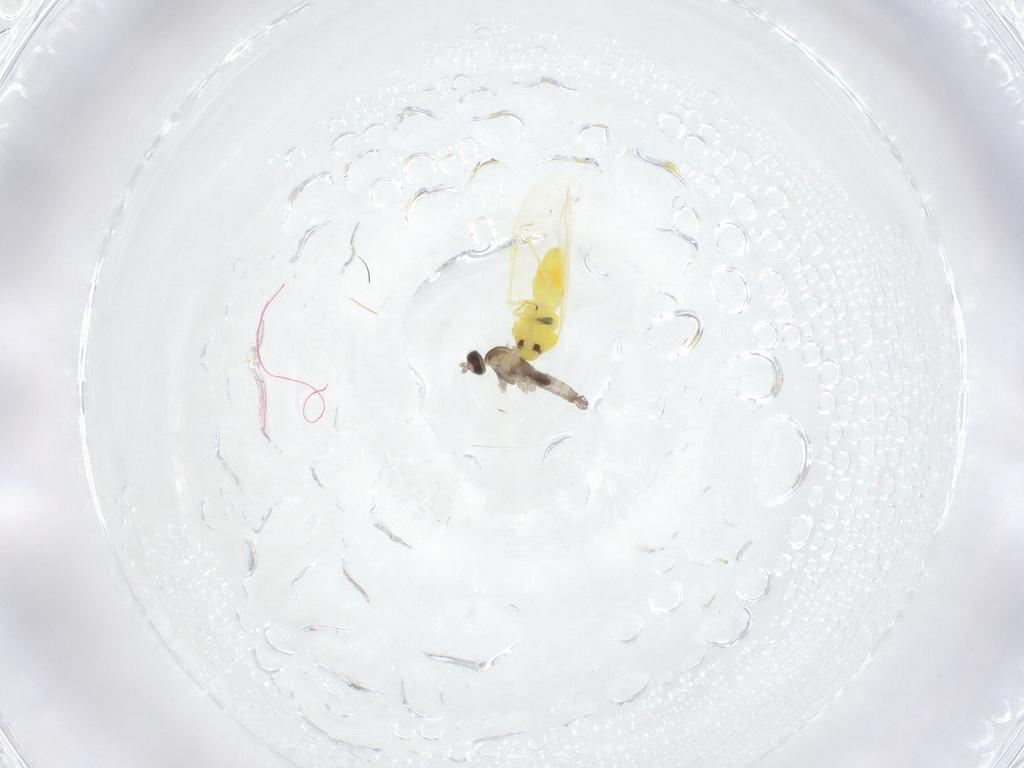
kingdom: Animalia
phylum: Arthropoda
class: Insecta
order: Diptera
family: Cecidomyiidae
